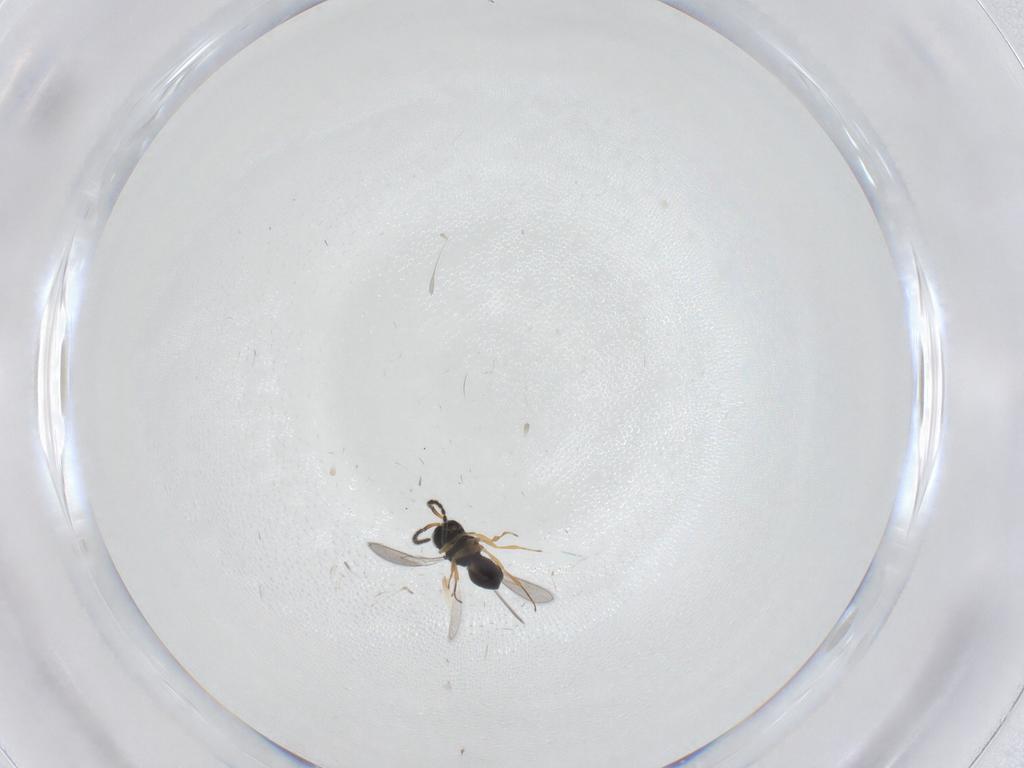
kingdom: Animalia
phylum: Arthropoda
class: Insecta
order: Hymenoptera
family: Scelionidae
